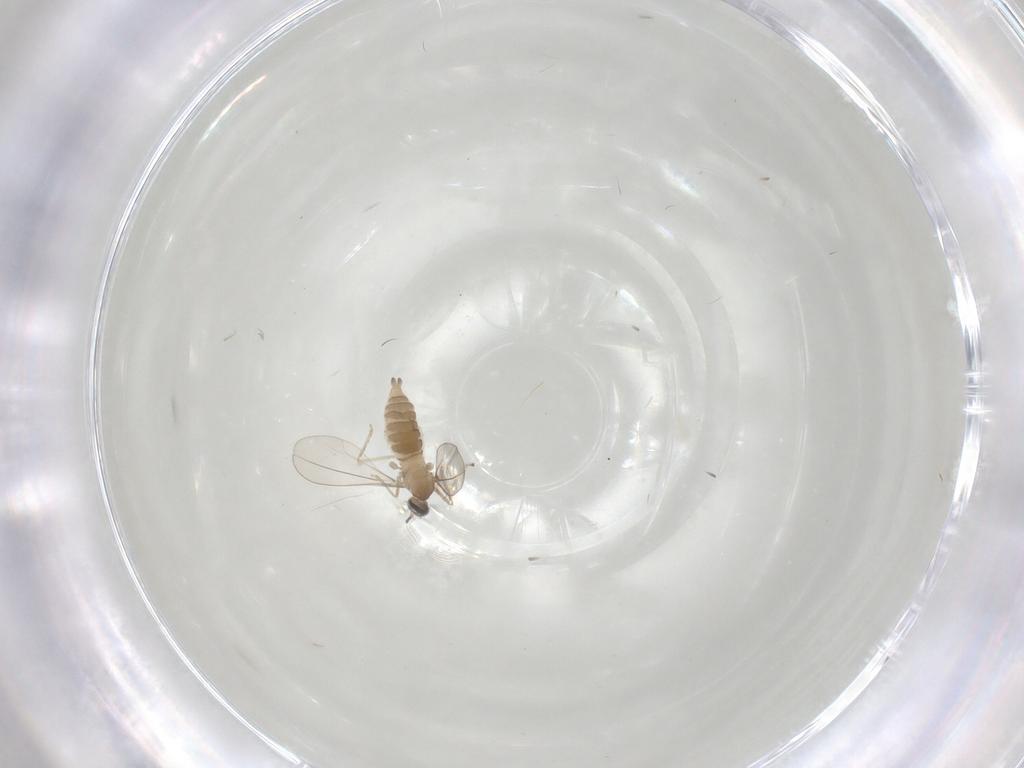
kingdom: Animalia
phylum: Arthropoda
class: Insecta
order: Diptera
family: Cecidomyiidae
